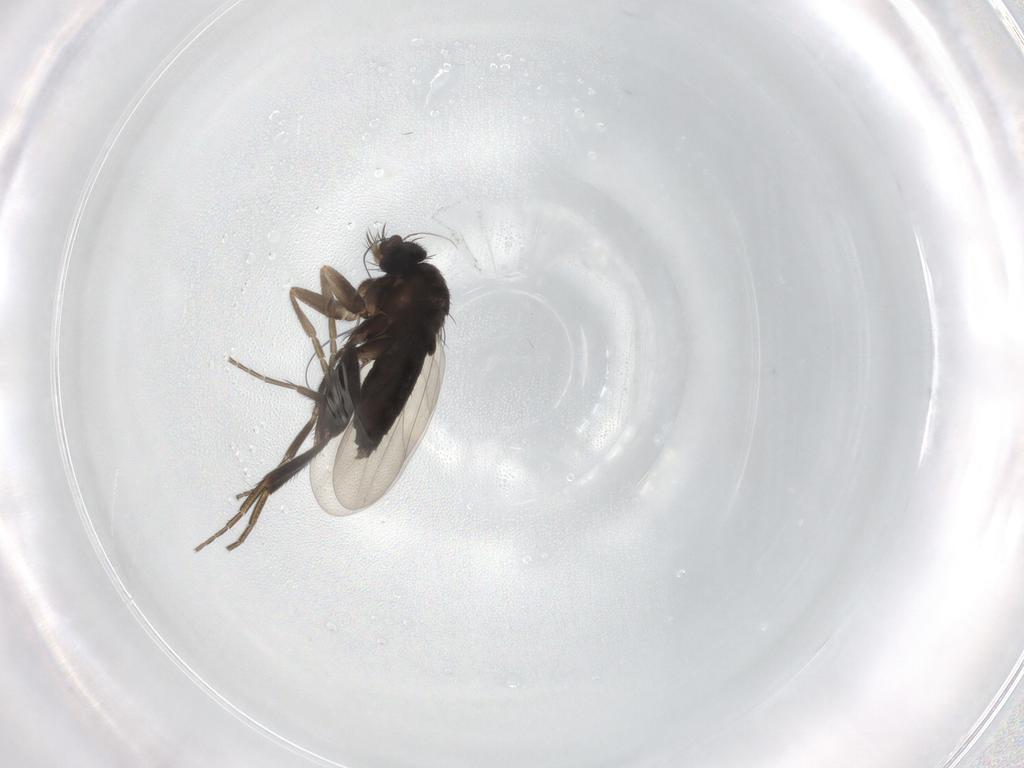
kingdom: Animalia
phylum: Arthropoda
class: Insecta
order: Diptera
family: Phoridae
